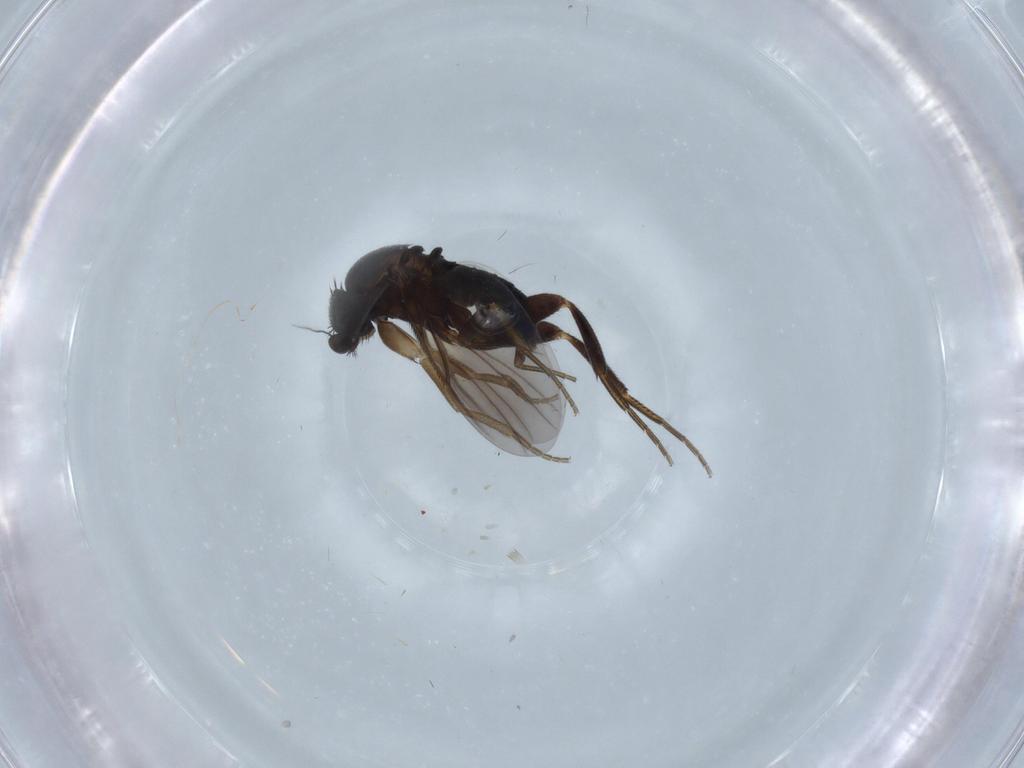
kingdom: Animalia
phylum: Arthropoda
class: Insecta
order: Diptera
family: Phoridae
